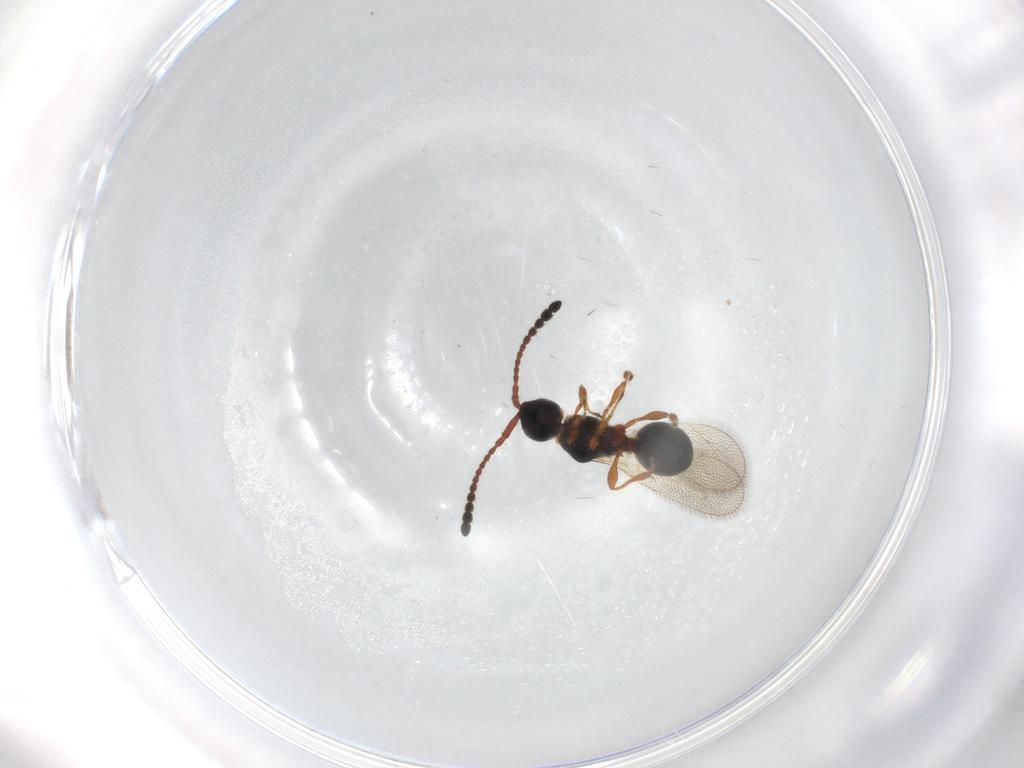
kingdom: Animalia
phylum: Arthropoda
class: Insecta
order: Hymenoptera
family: Diapriidae
